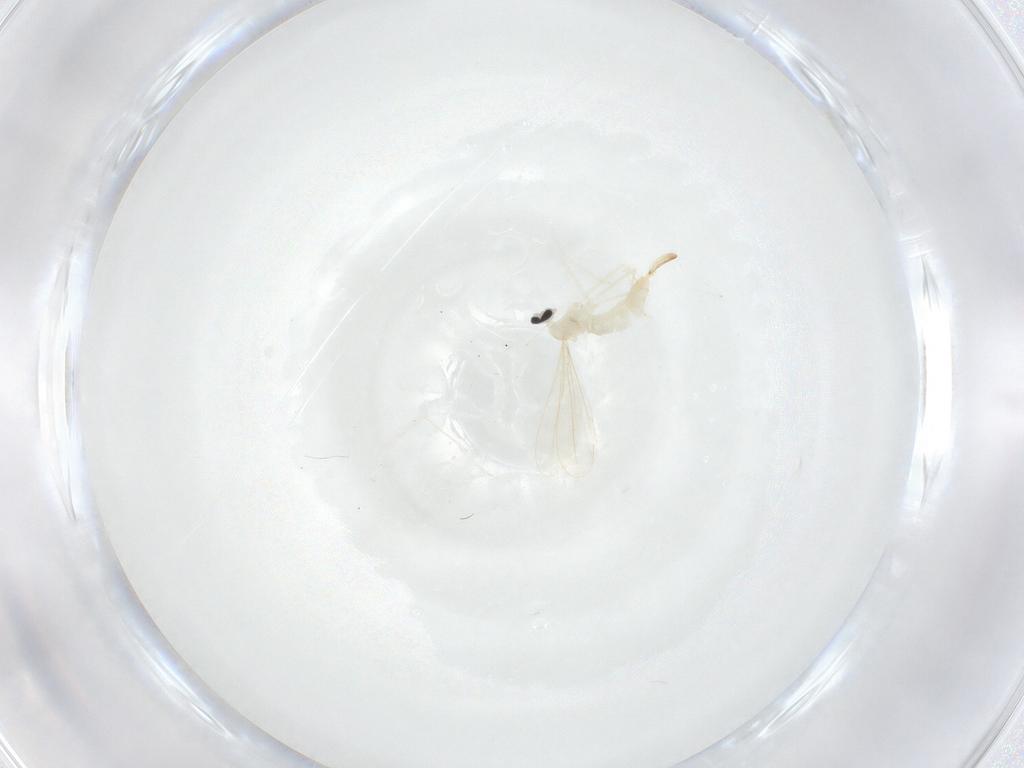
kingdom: Animalia
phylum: Arthropoda
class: Insecta
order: Diptera
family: Cecidomyiidae
